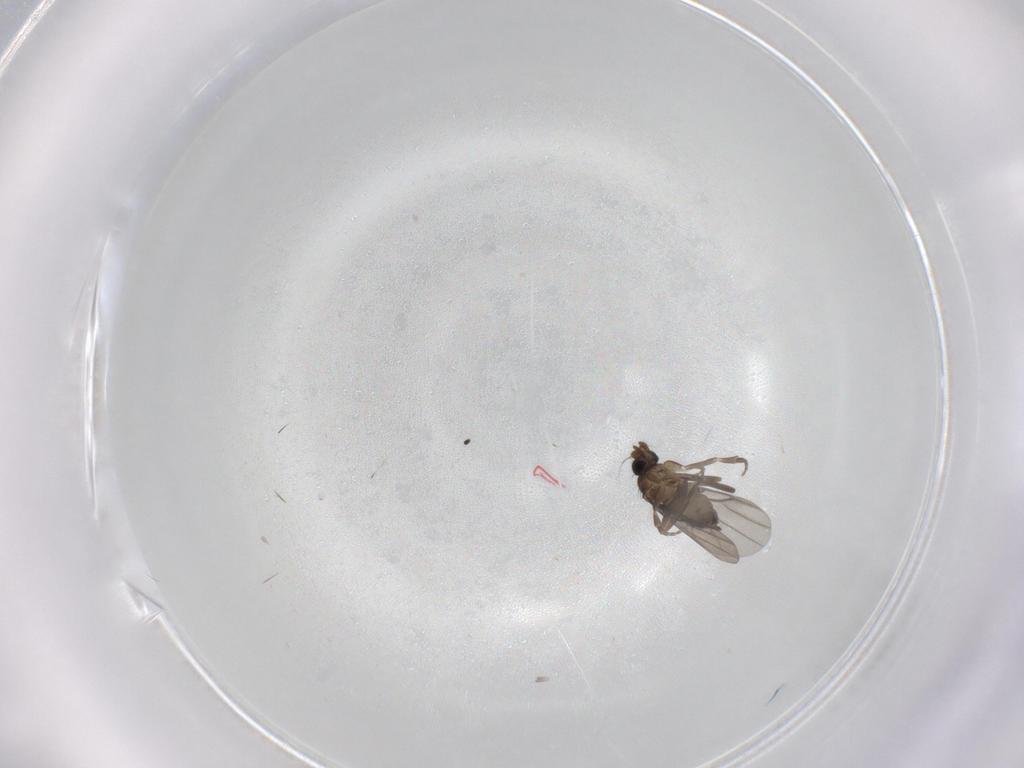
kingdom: Animalia
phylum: Arthropoda
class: Insecta
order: Diptera
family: Phoridae
